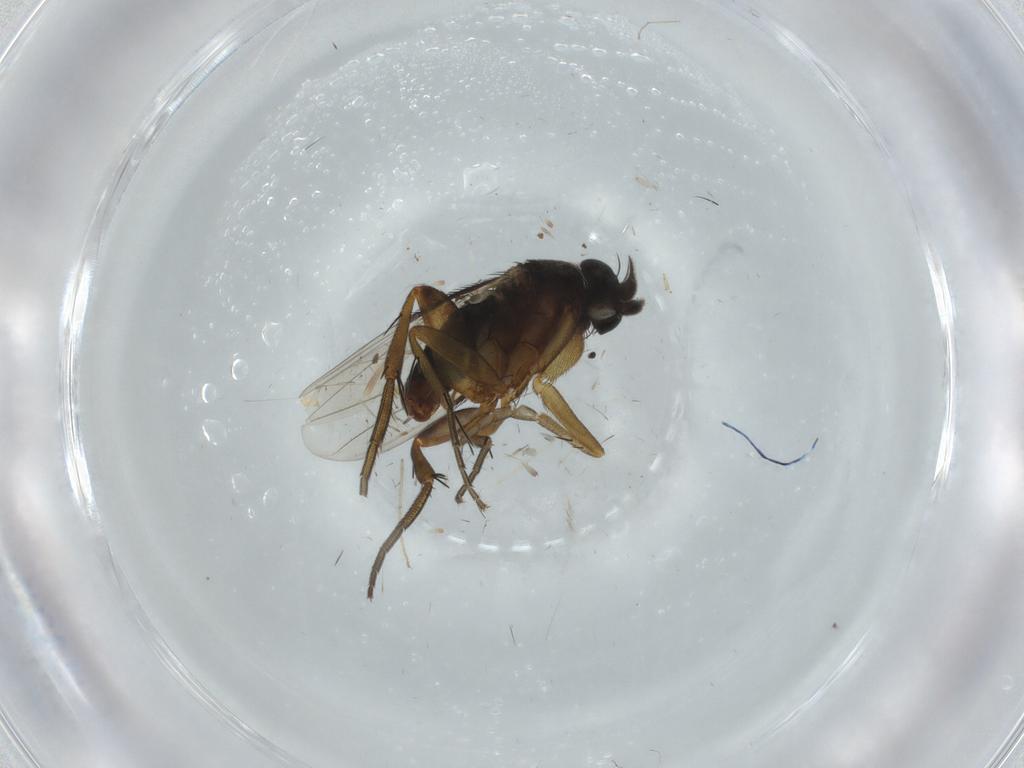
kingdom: Animalia
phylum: Arthropoda
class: Insecta
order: Diptera
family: Phoridae
